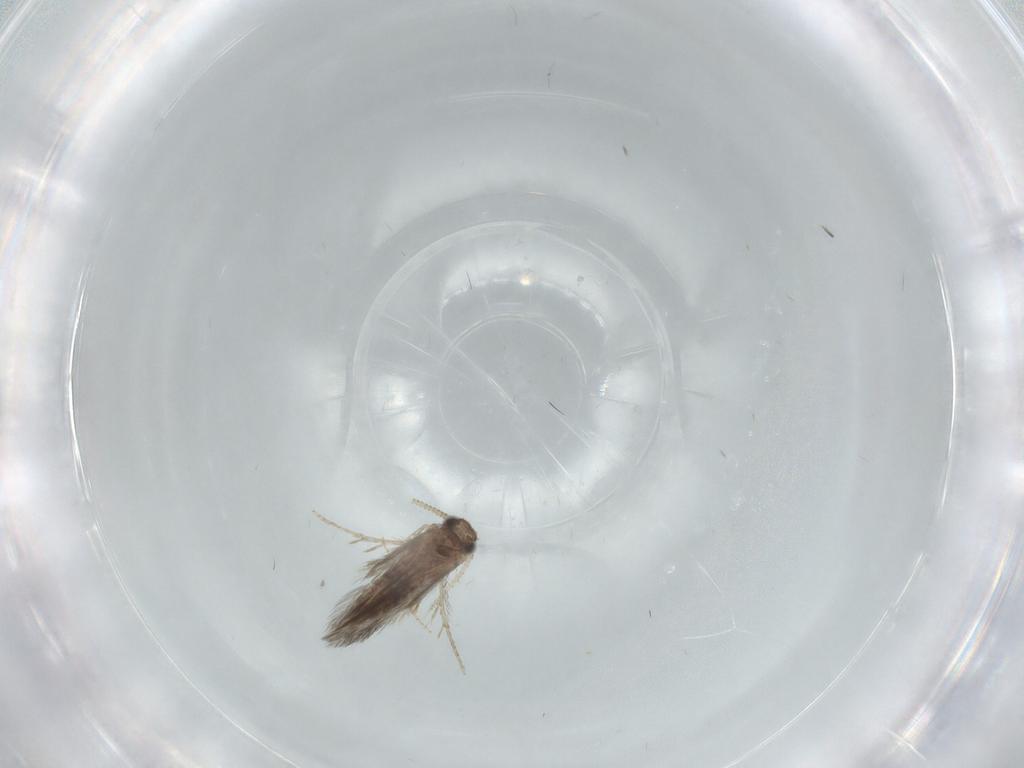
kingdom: Animalia
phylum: Arthropoda
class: Insecta
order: Trichoptera
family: Hydroptilidae
